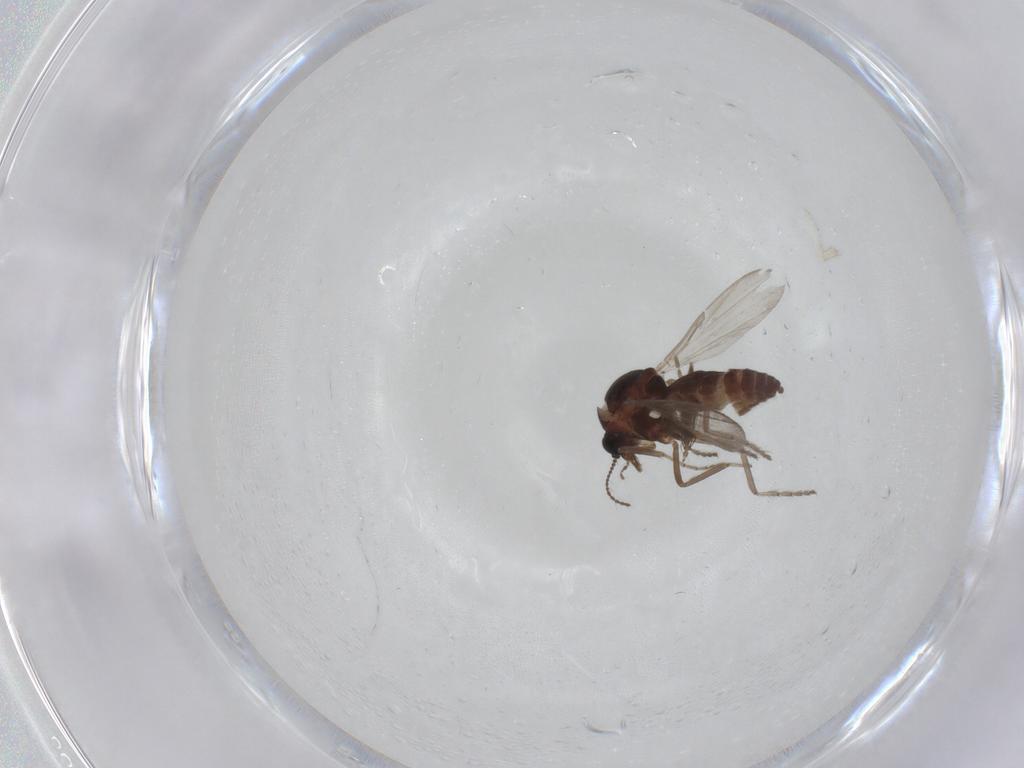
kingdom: Animalia
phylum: Arthropoda
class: Insecta
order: Diptera
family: Ceratopogonidae
